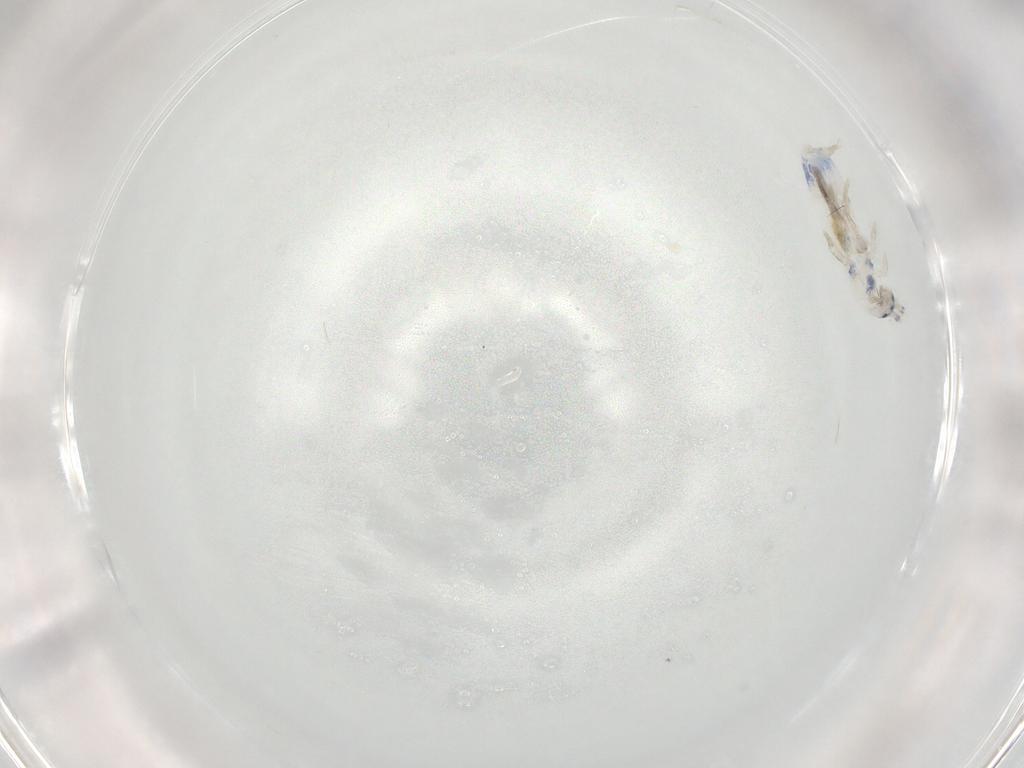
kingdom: Animalia
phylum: Arthropoda
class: Collembola
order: Entomobryomorpha
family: Entomobryidae
